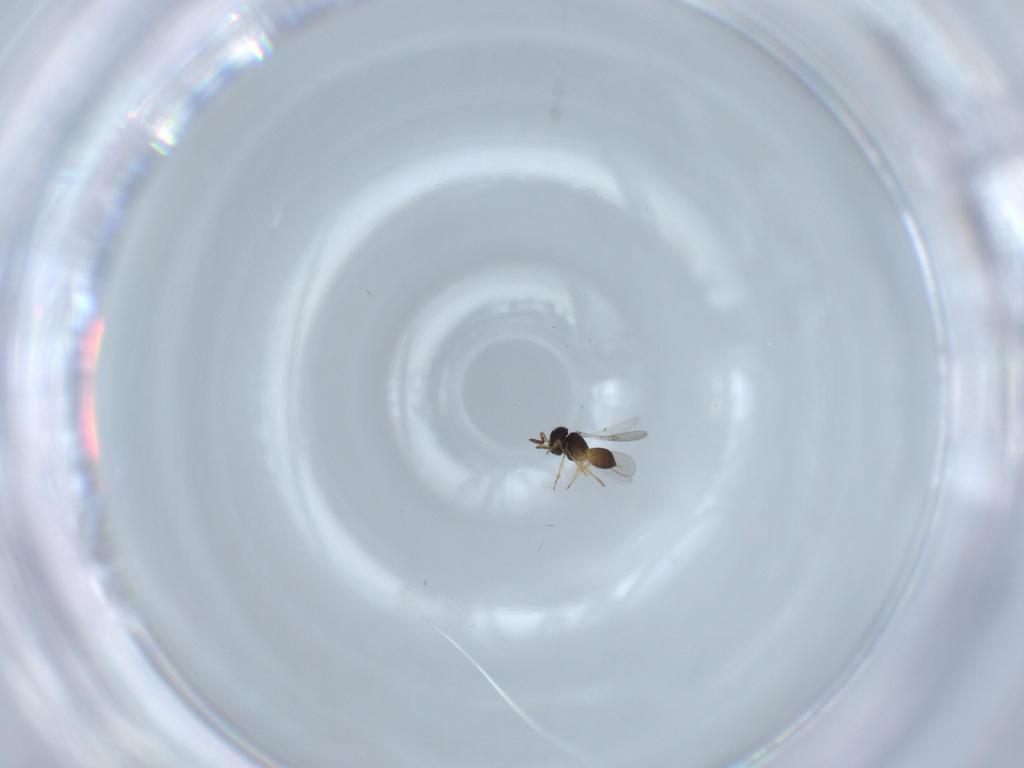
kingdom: Animalia
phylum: Arthropoda
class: Insecta
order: Hymenoptera
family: Scelionidae
